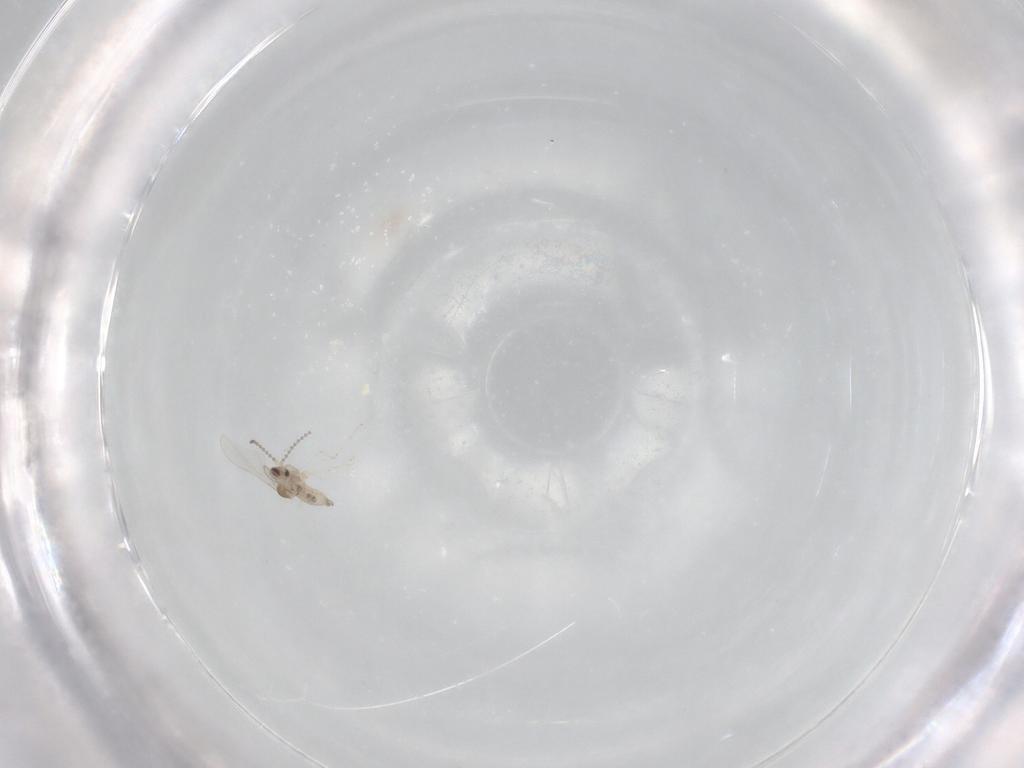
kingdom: Animalia
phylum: Arthropoda
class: Insecta
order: Diptera
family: Cecidomyiidae
